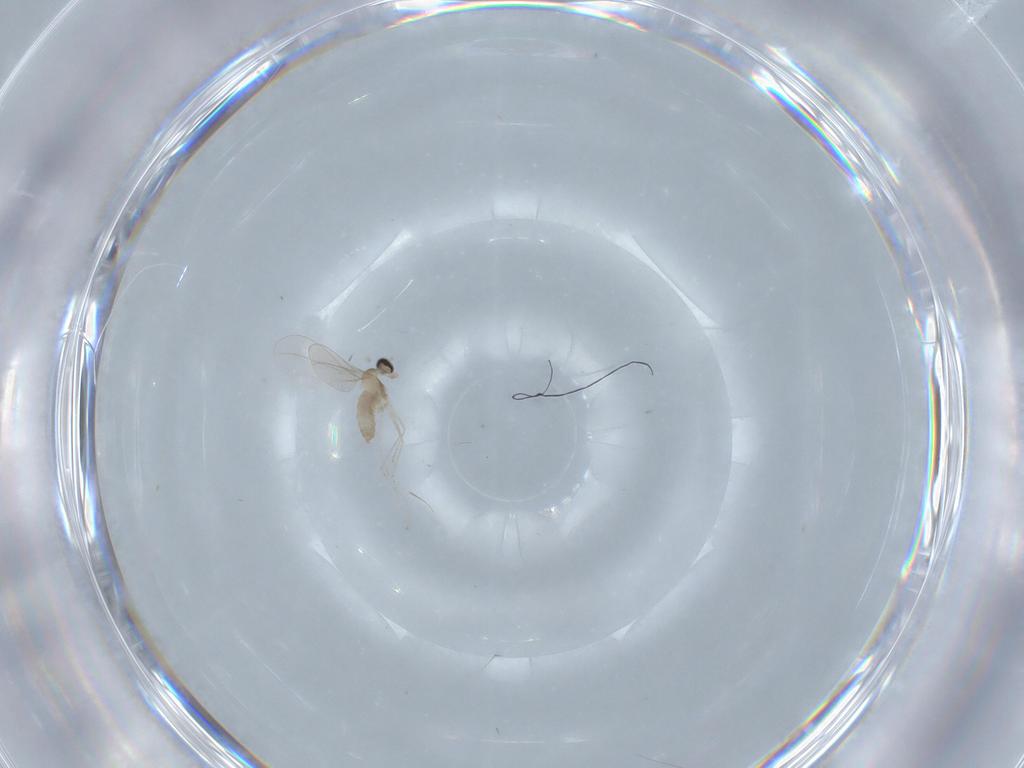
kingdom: Animalia
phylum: Arthropoda
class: Insecta
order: Diptera
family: Cecidomyiidae
